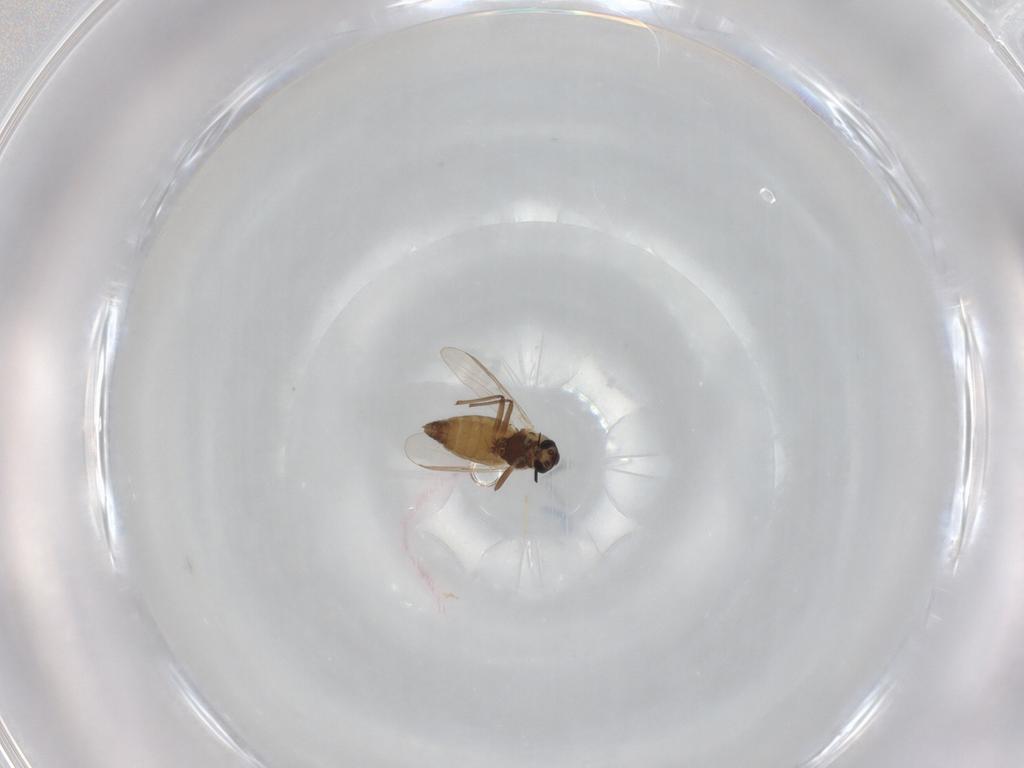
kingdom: Animalia
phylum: Arthropoda
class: Insecta
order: Diptera
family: Chironomidae
